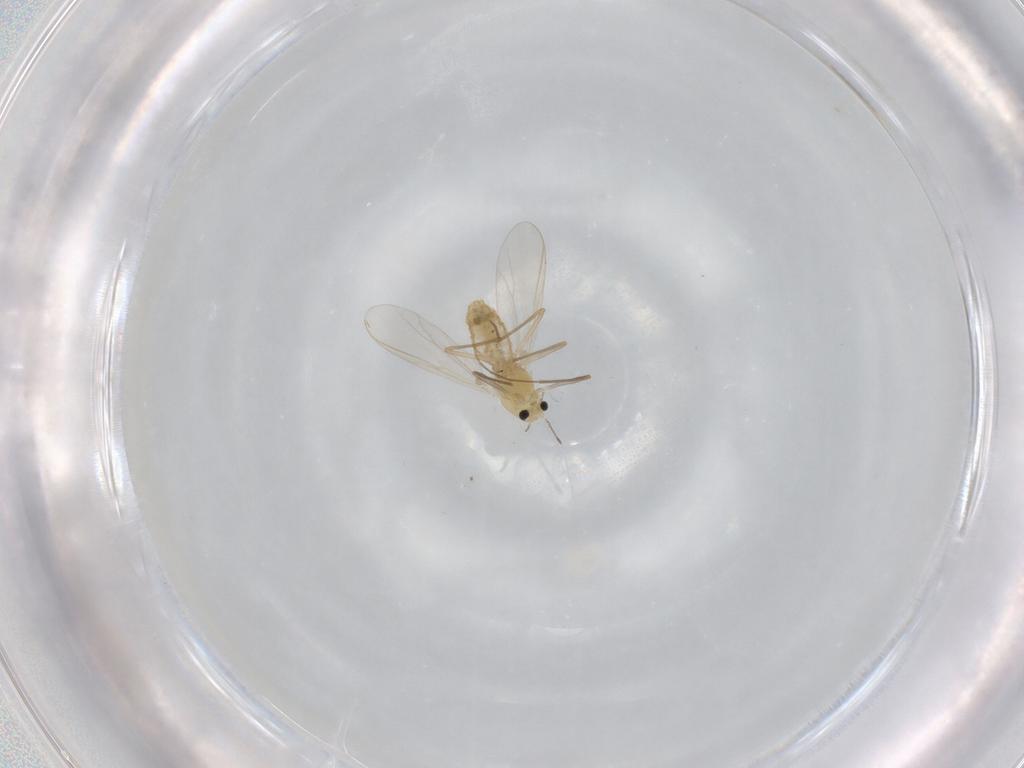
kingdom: Animalia
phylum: Arthropoda
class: Insecta
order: Diptera
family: Chironomidae
